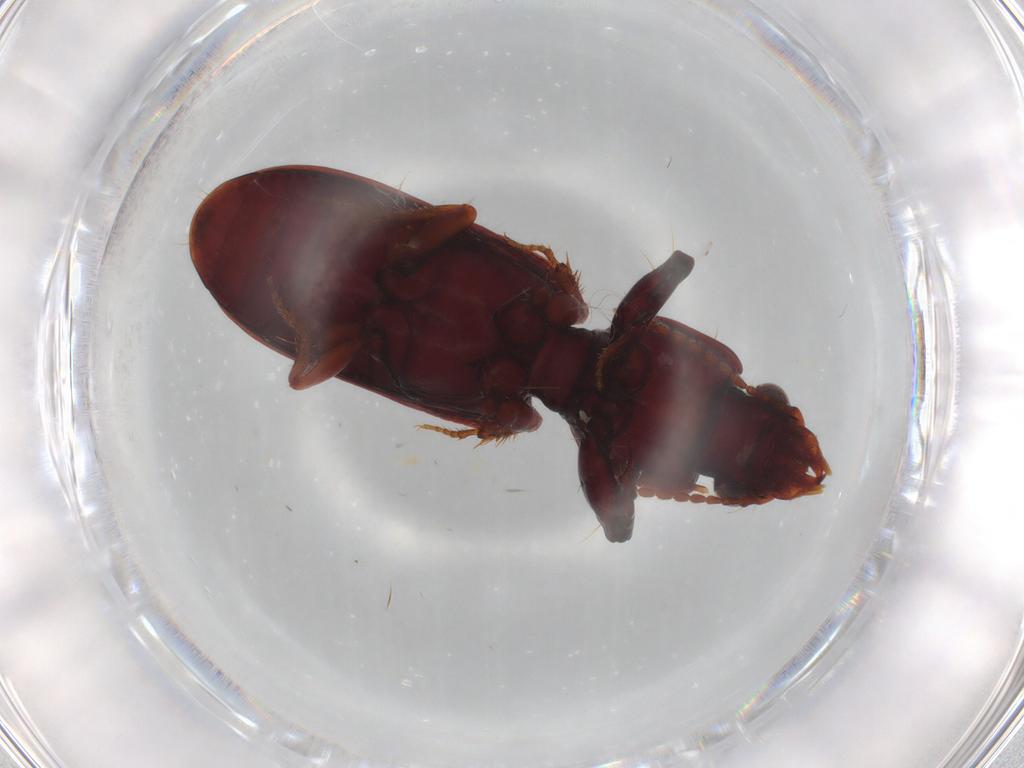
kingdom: Animalia
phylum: Arthropoda
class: Insecta
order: Coleoptera
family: Carabidae
